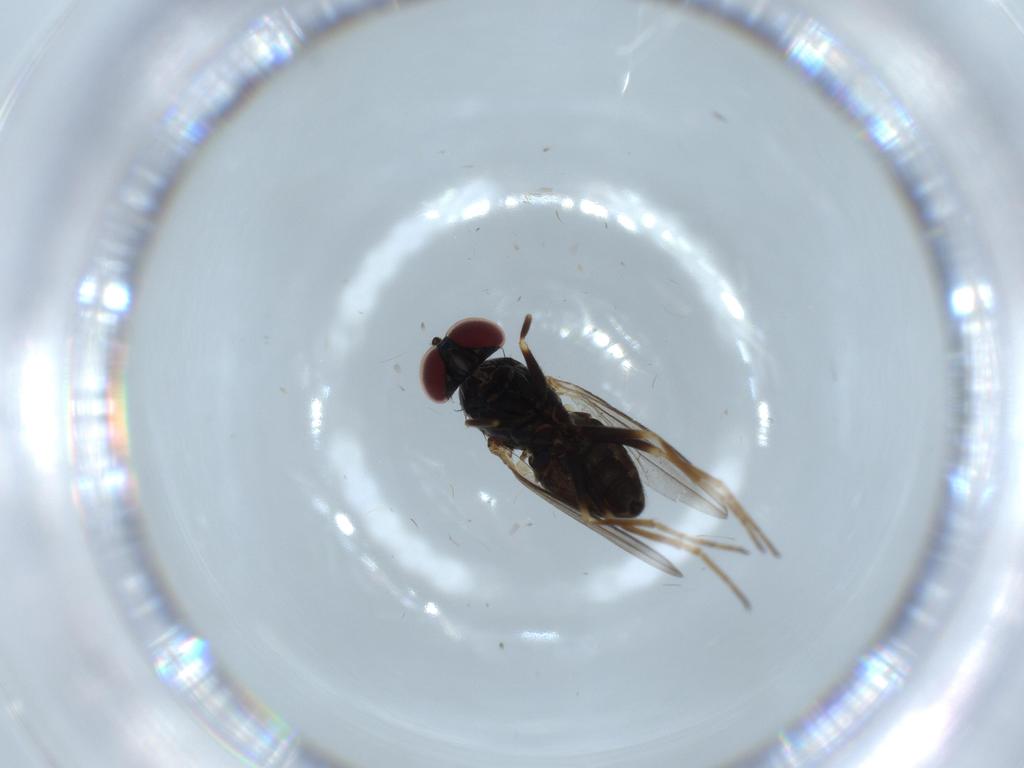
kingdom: Animalia
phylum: Arthropoda
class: Insecta
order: Diptera
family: Dolichopodidae
